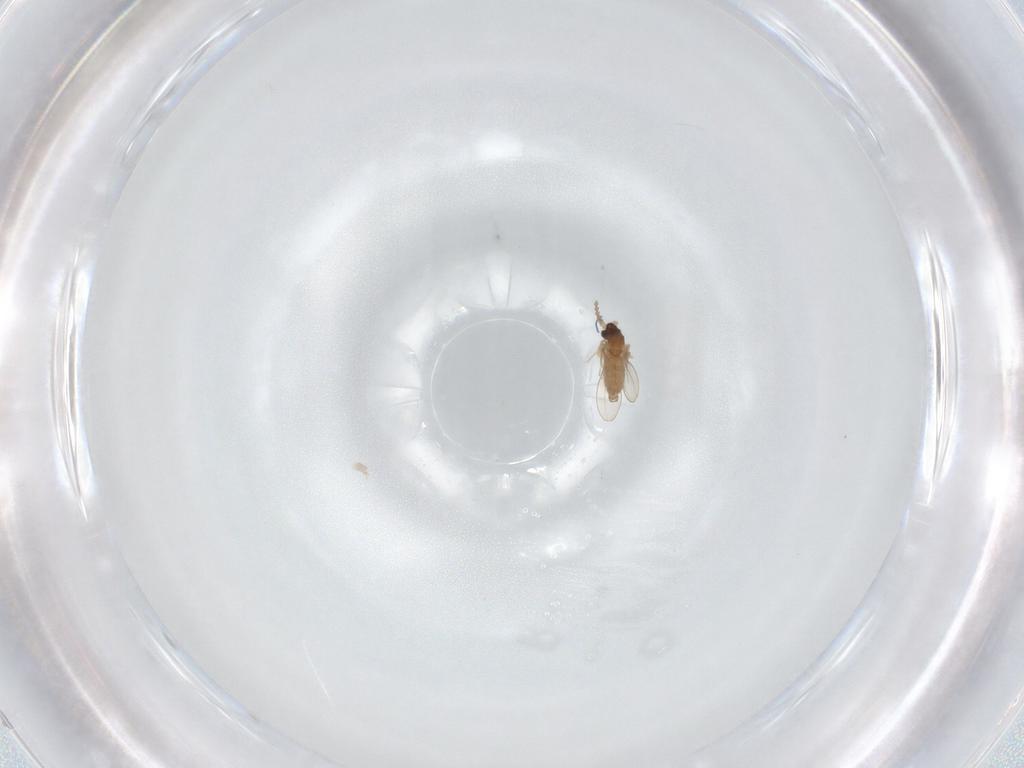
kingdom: Animalia
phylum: Arthropoda
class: Insecta
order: Diptera
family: Cecidomyiidae
